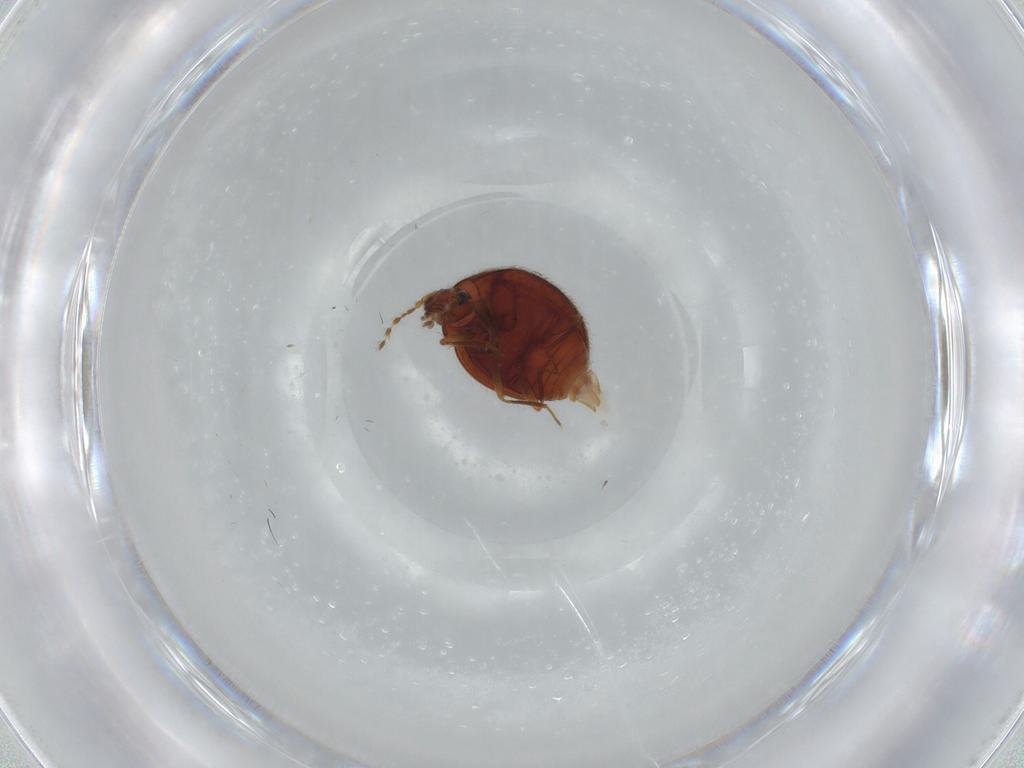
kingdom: Animalia
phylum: Arthropoda
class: Insecta
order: Coleoptera
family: Anamorphidae
